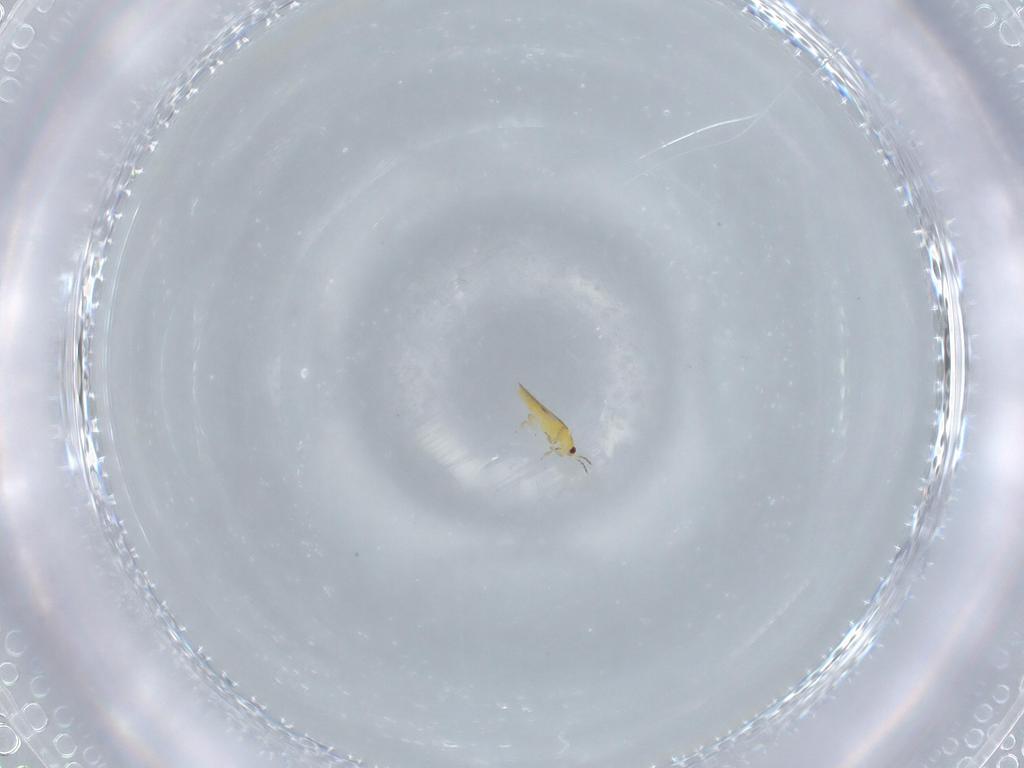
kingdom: Animalia
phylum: Arthropoda
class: Insecta
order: Thysanoptera
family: Thripidae
